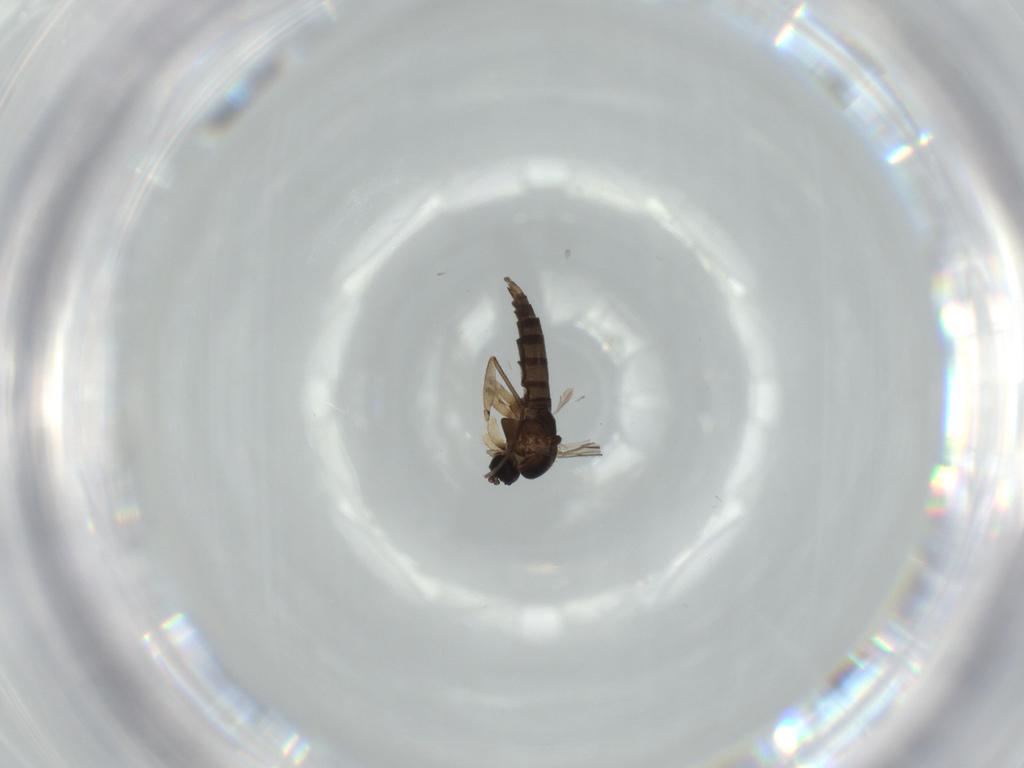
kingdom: Animalia
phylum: Arthropoda
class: Insecta
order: Diptera
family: Sciaridae
